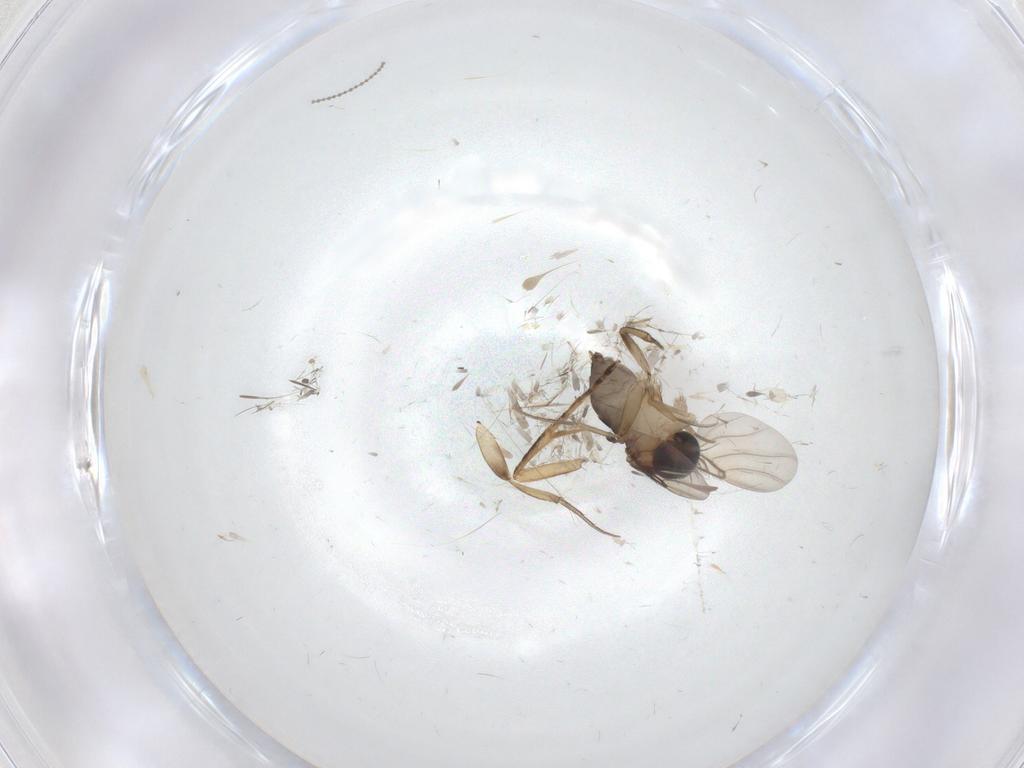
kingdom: Animalia
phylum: Arthropoda
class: Insecta
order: Diptera
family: Phoridae
